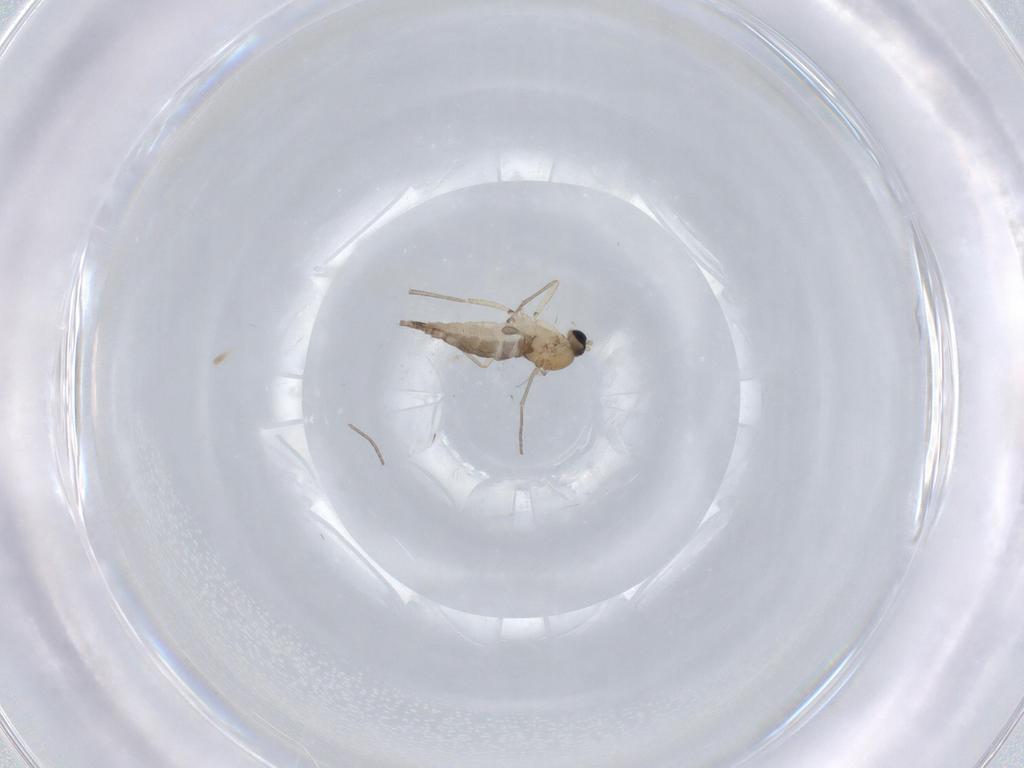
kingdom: Animalia
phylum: Arthropoda
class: Insecta
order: Diptera
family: Sciaridae
